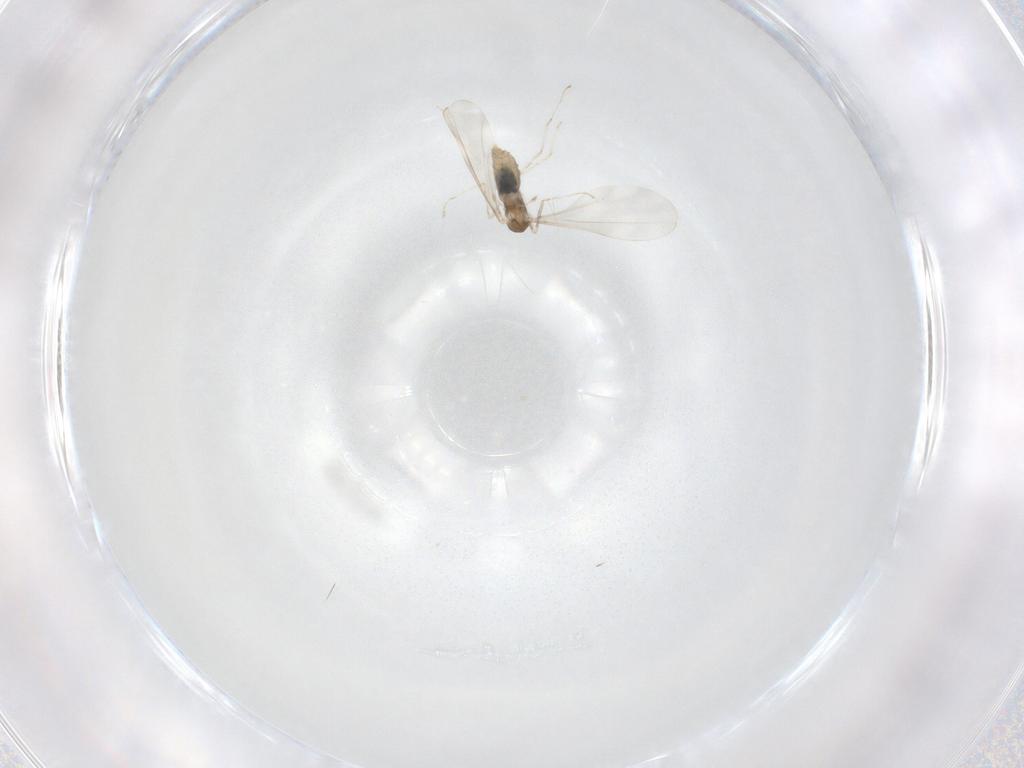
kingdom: Animalia
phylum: Arthropoda
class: Insecta
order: Diptera
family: Cecidomyiidae
